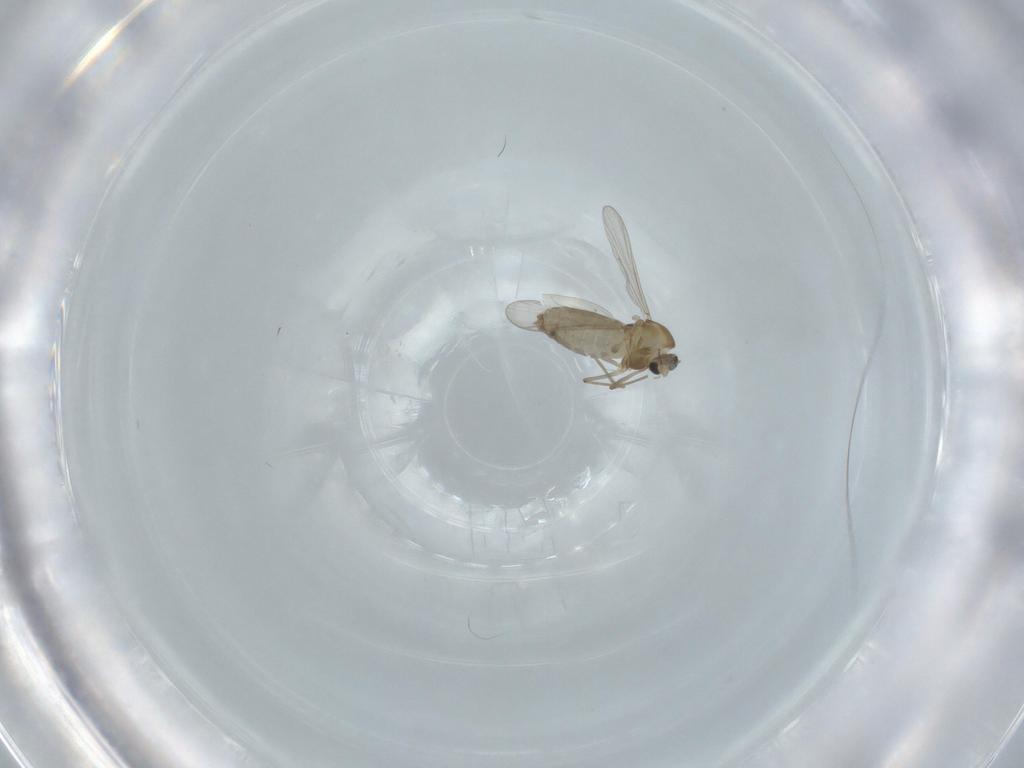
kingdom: Animalia
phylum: Arthropoda
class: Insecta
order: Diptera
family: Chironomidae
